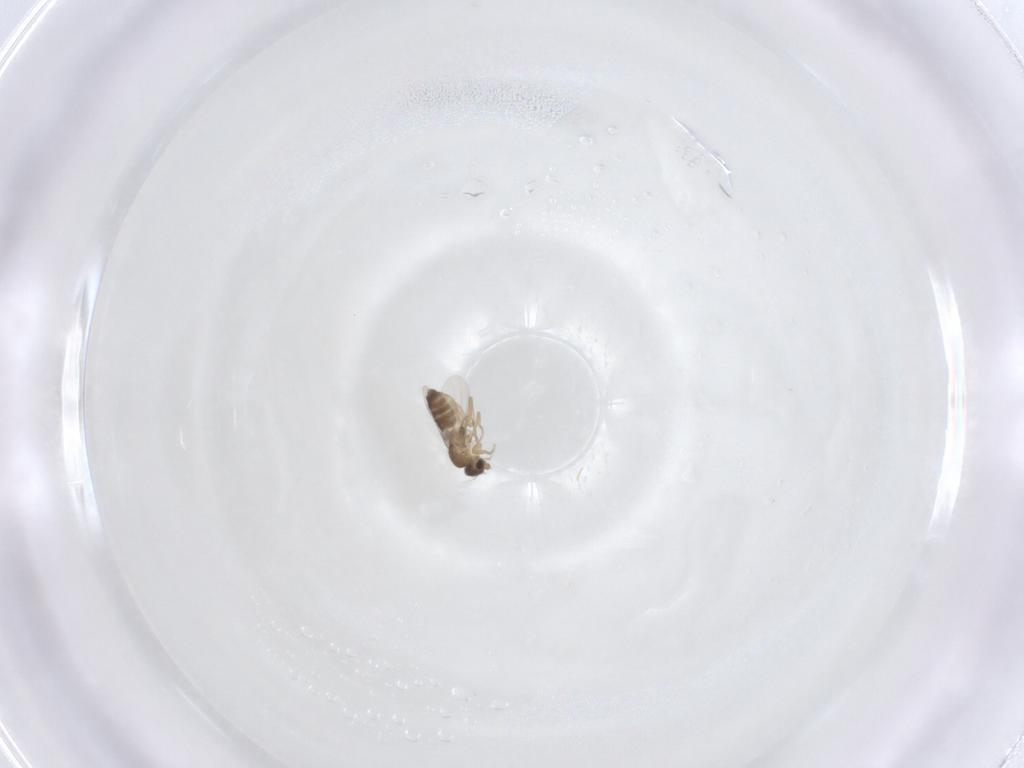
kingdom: Animalia
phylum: Arthropoda
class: Insecta
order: Diptera
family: Phoridae
